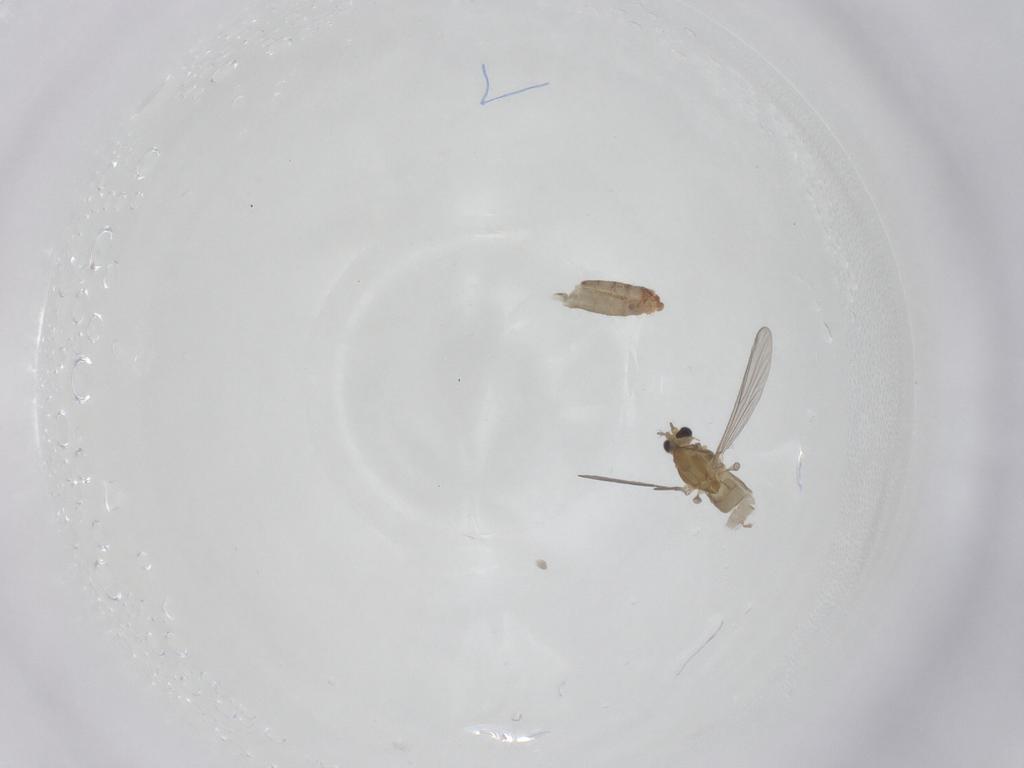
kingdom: Animalia
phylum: Arthropoda
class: Insecta
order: Diptera
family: Chironomidae
